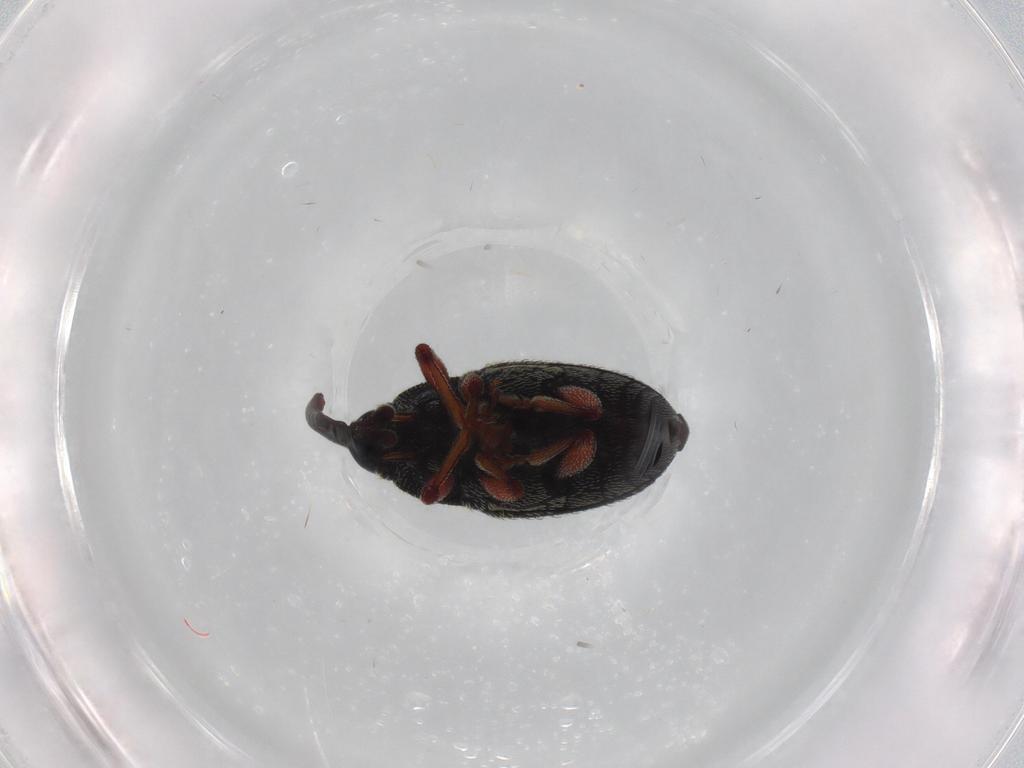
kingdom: Animalia
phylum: Arthropoda
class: Insecta
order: Coleoptera
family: Curculionidae
